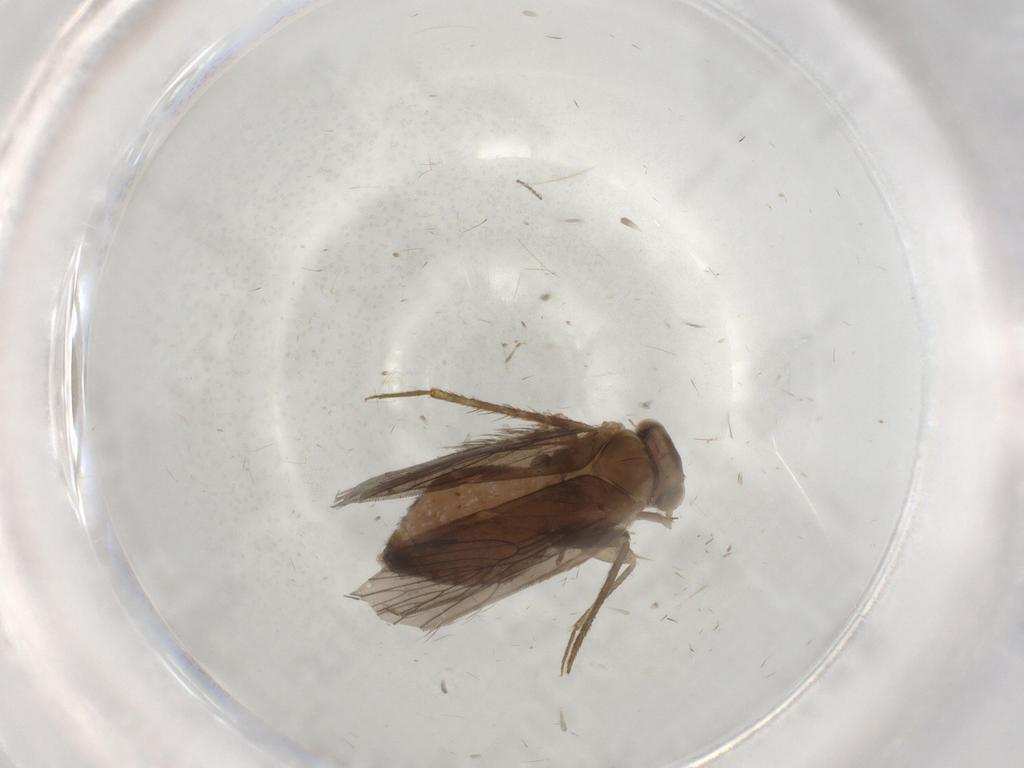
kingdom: Animalia
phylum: Arthropoda
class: Insecta
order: Psocodea
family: Lepidopsocidae
